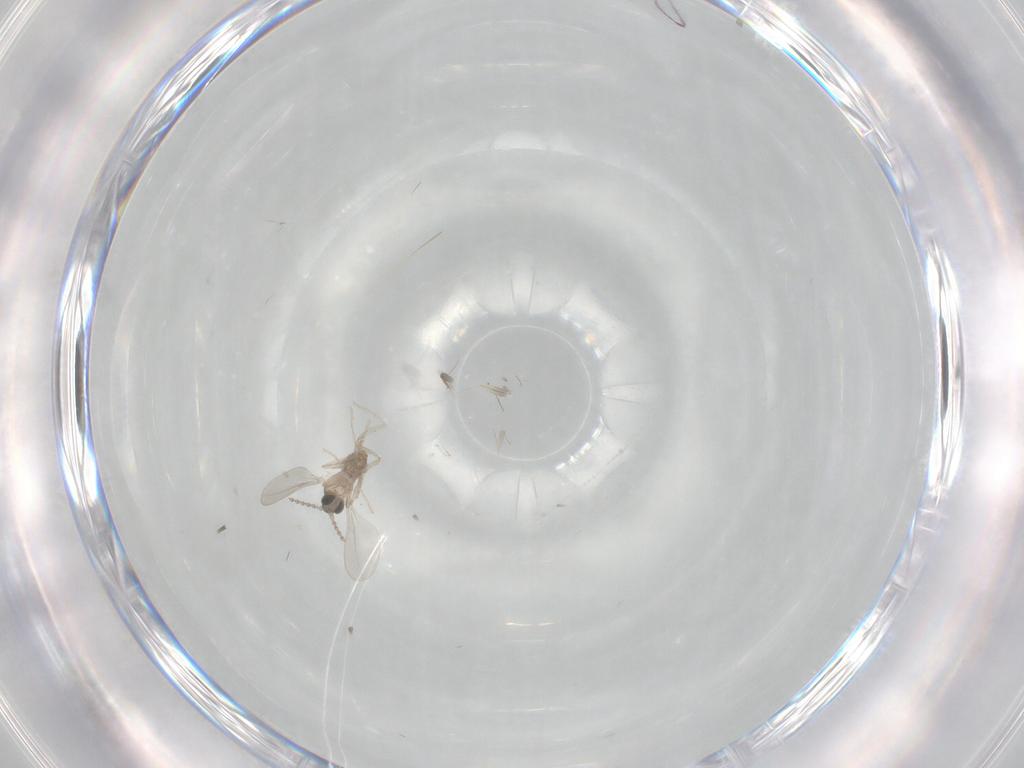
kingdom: Animalia
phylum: Arthropoda
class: Insecta
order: Diptera
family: Cecidomyiidae
